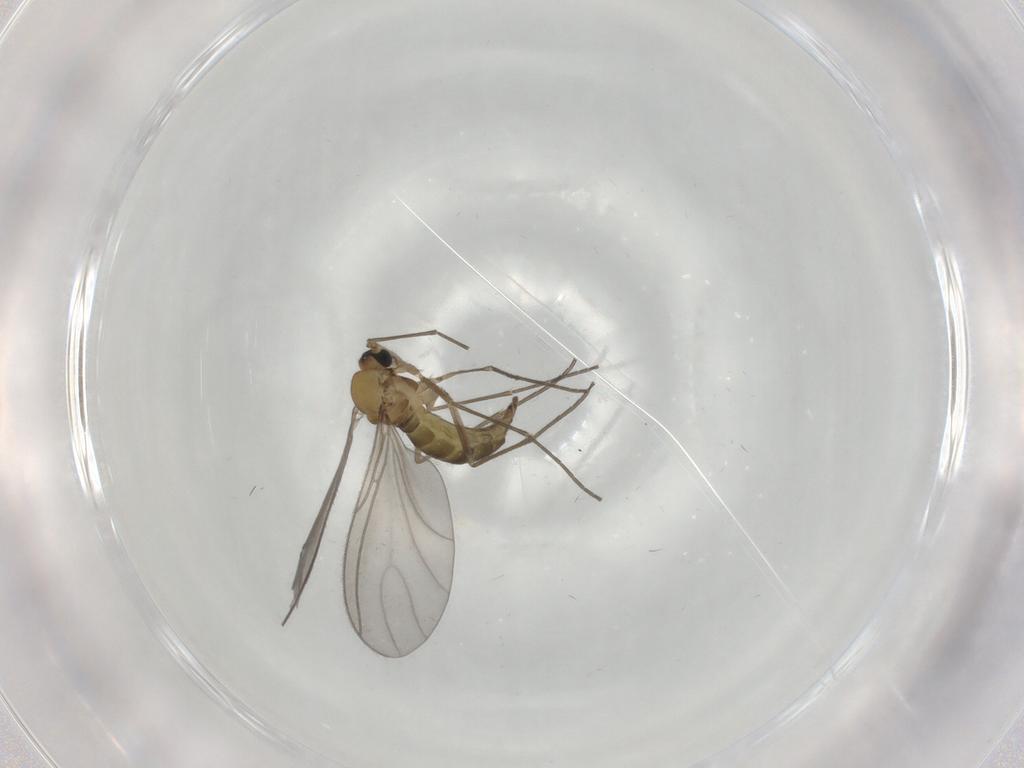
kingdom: Animalia
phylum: Arthropoda
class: Insecta
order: Diptera
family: Sciaridae
